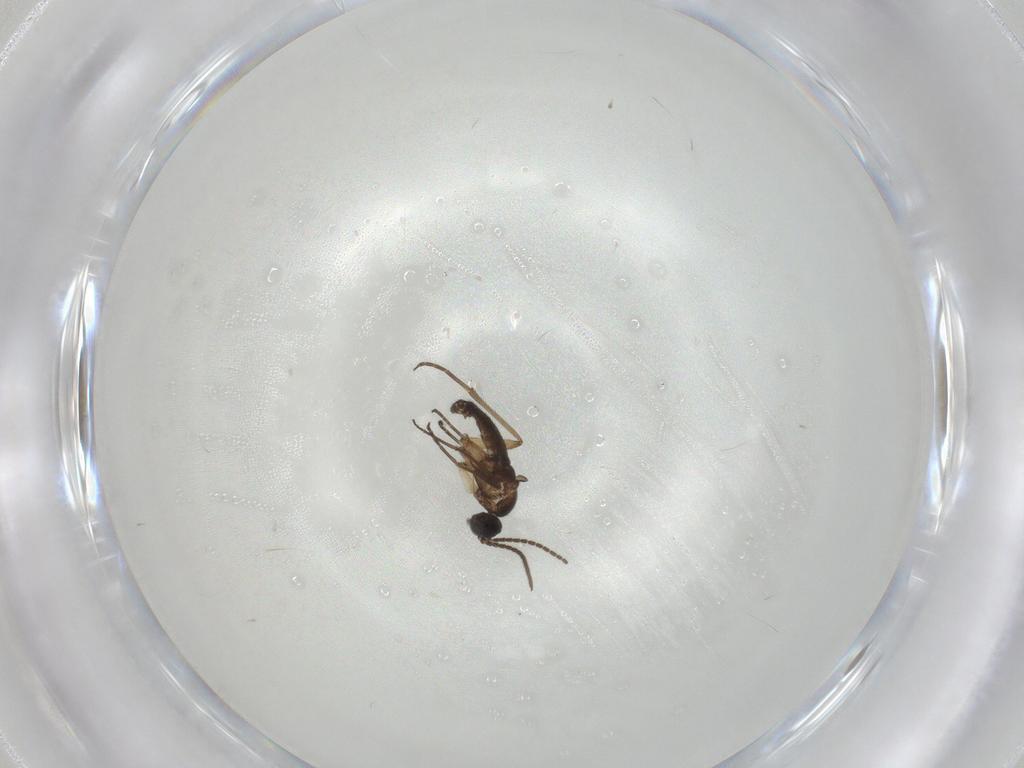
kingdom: Animalia
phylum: Arthropoda
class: Insecta
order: Diptera
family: Sciaridae
